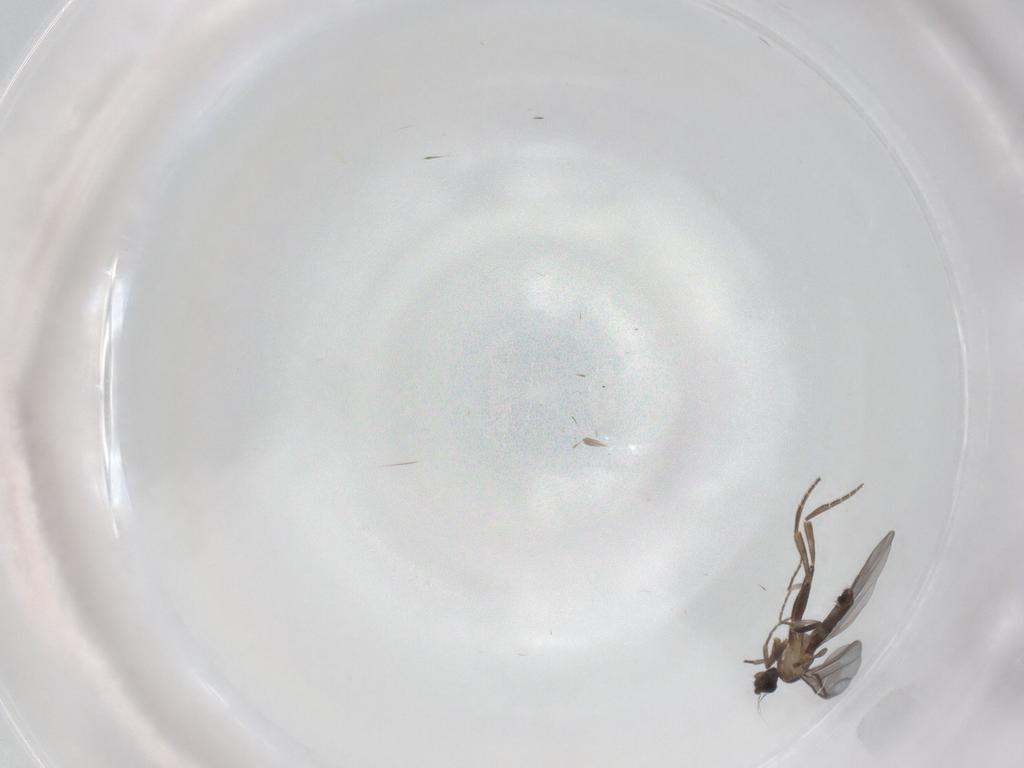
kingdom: Animalia
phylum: Arthropoda
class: Insecta
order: Diptera
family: Phoridae
